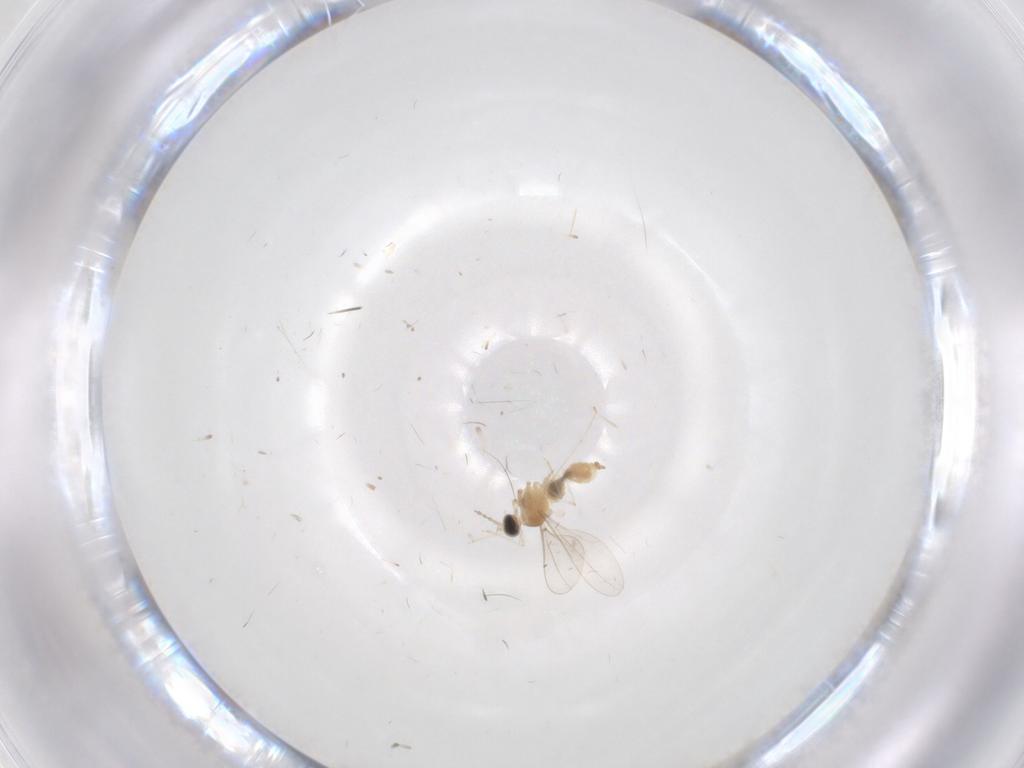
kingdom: Animalia
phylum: Arthropoda
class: Insecta
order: Diptera
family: Cecidomyiidae
